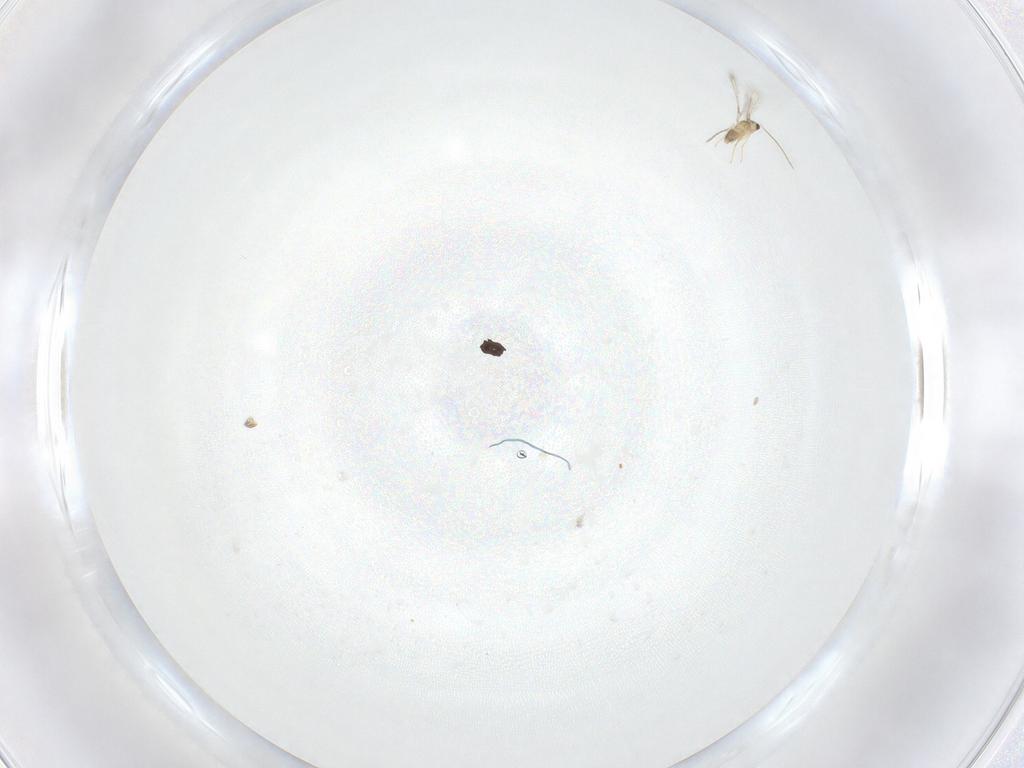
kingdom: Animalia
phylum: Arthropoda
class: Insecta
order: Hymenoptera
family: Mymaridae
